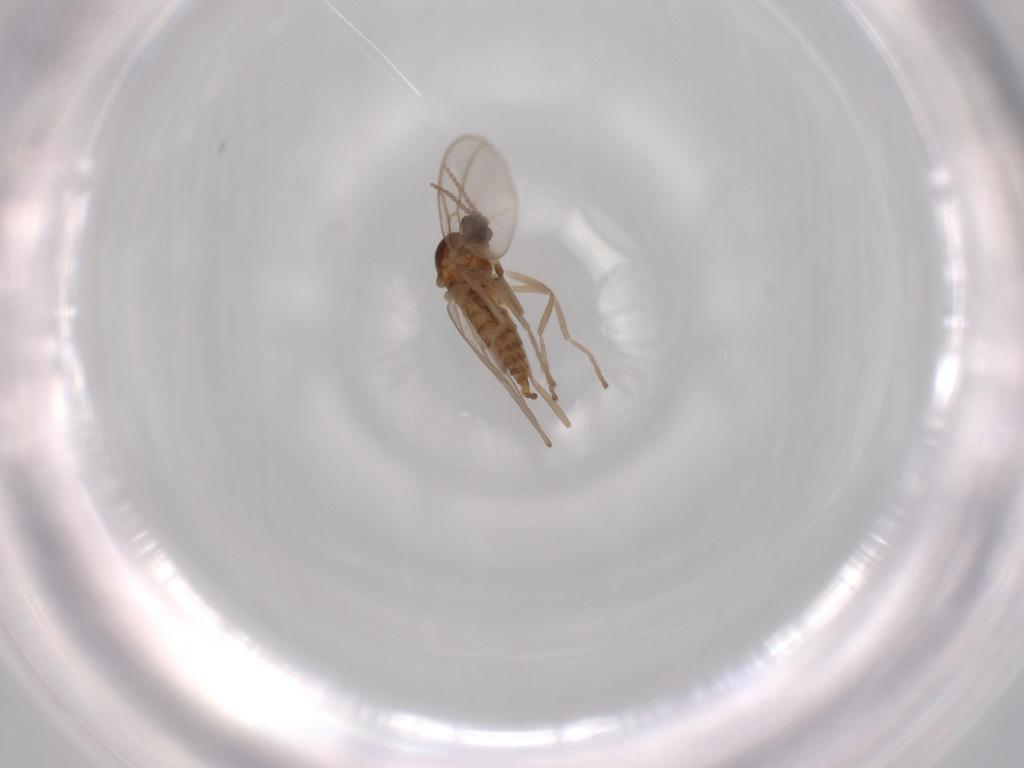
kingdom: Animalia
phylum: Arthropoda
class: Insecta
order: Diptera
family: Cecidomyiidae
